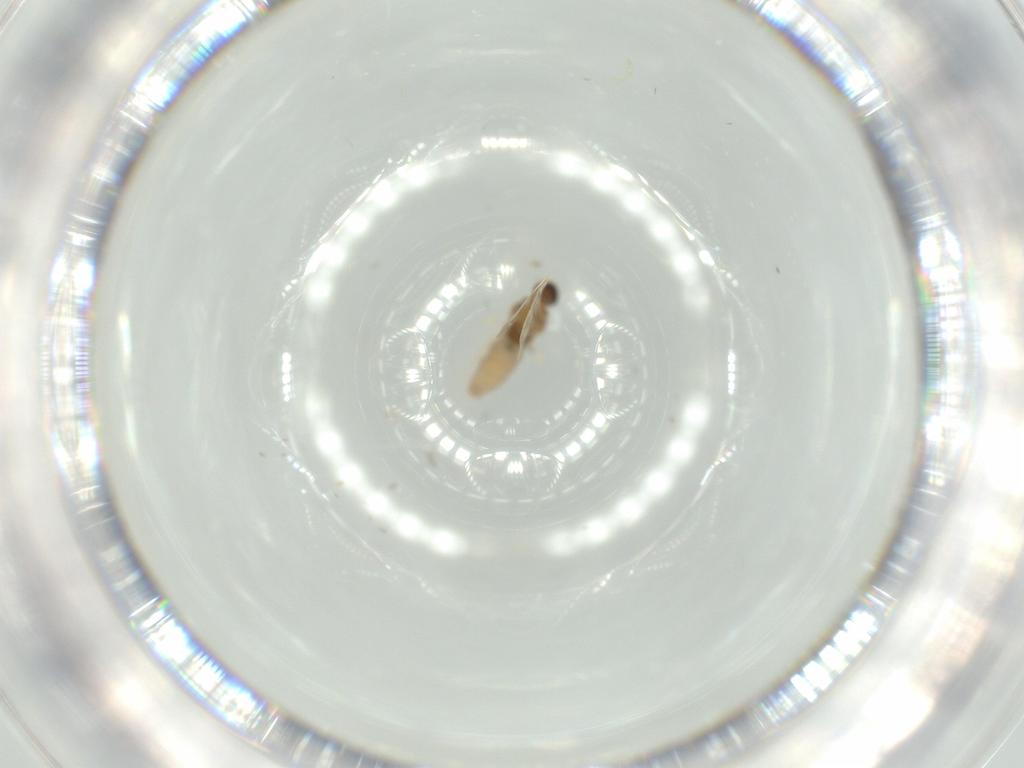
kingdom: Animalia
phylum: Arthropoda
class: Insecta
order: Diptera
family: Cecidomyiidae
